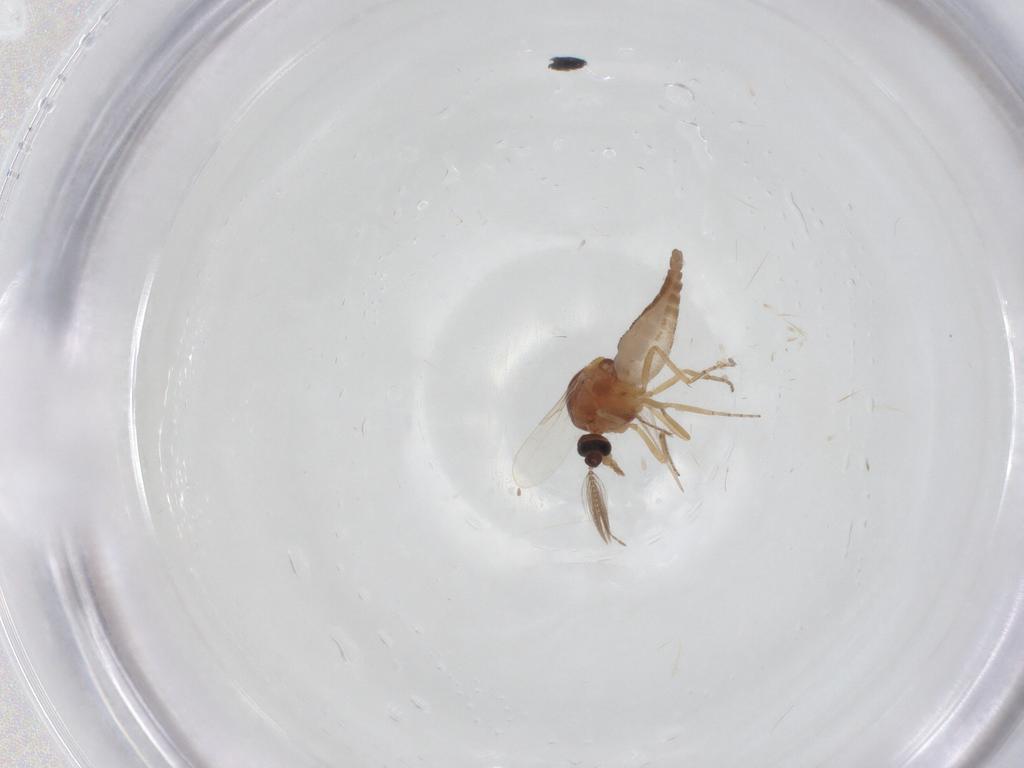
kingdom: Animalia
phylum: Arthropoda
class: Insecta
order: Diptera
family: Ceratopogonidae
